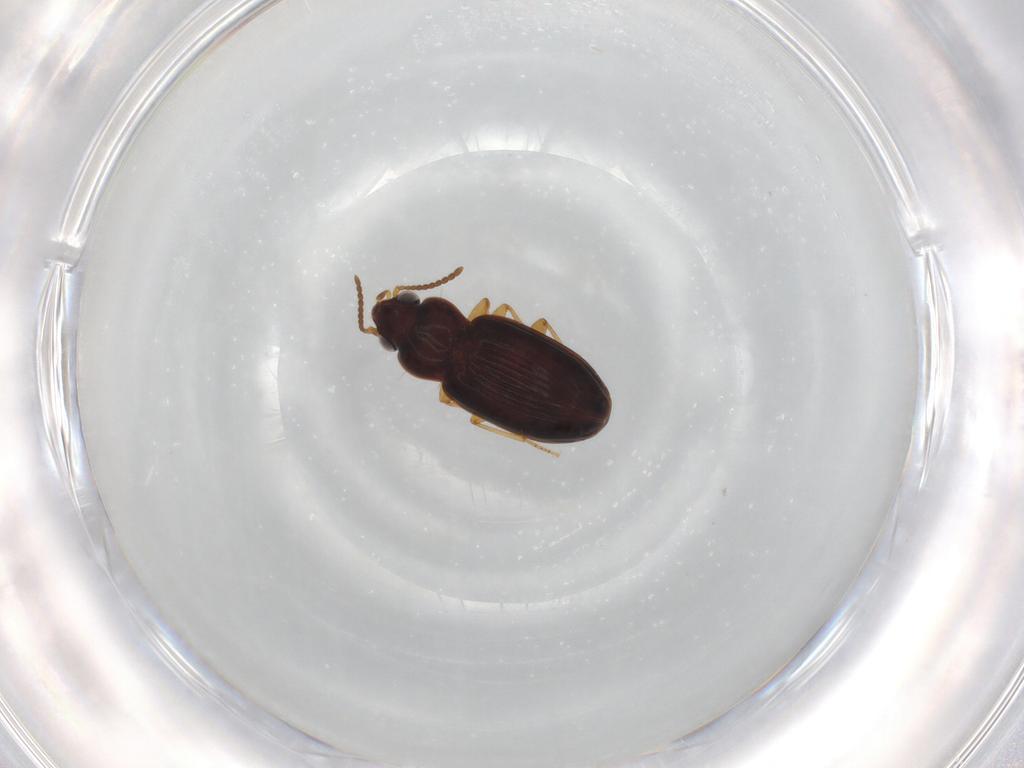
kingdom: Animalia
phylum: Arthropoda
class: Insecta
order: Coleoptera
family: Carabidae
